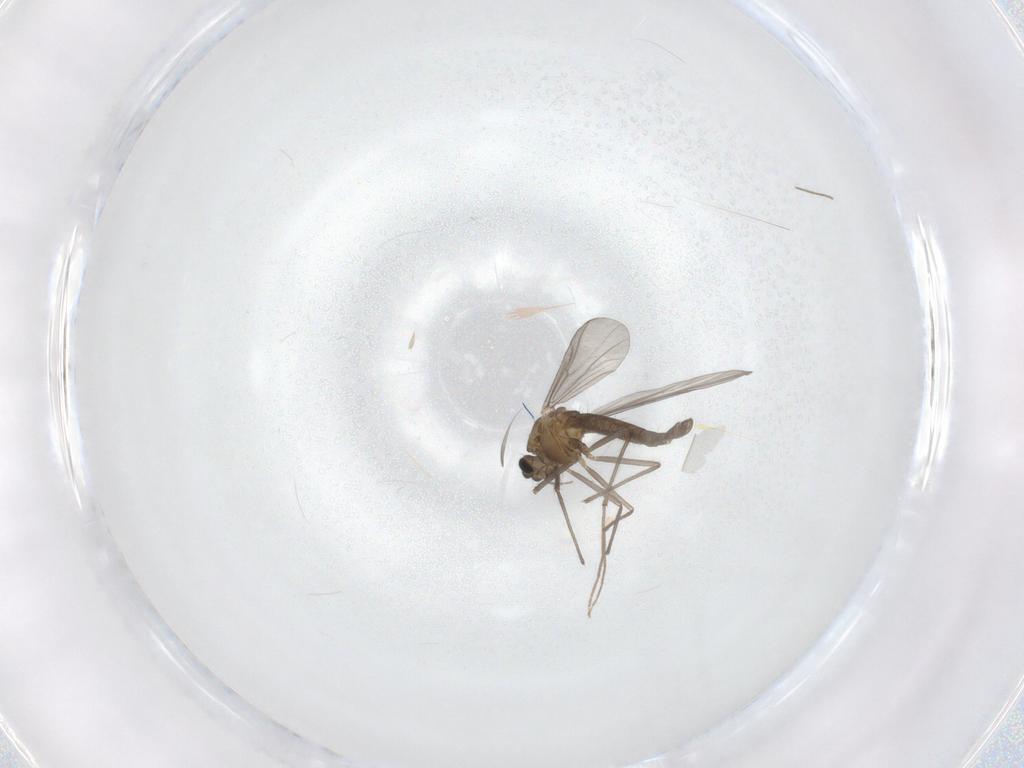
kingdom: Animalia
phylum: Arthropoda
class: Insecta
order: Diptera
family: Chironomidae
